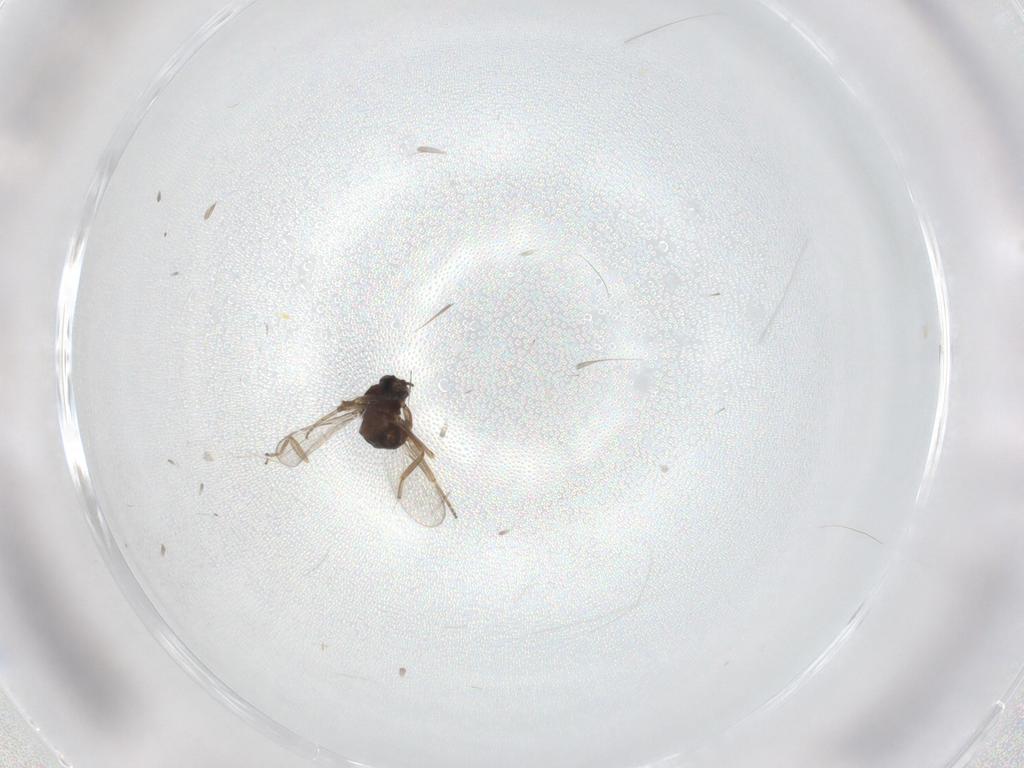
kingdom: Animalia
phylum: Arthropoda
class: Insecta
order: Diptera
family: Ceratopogonidae
